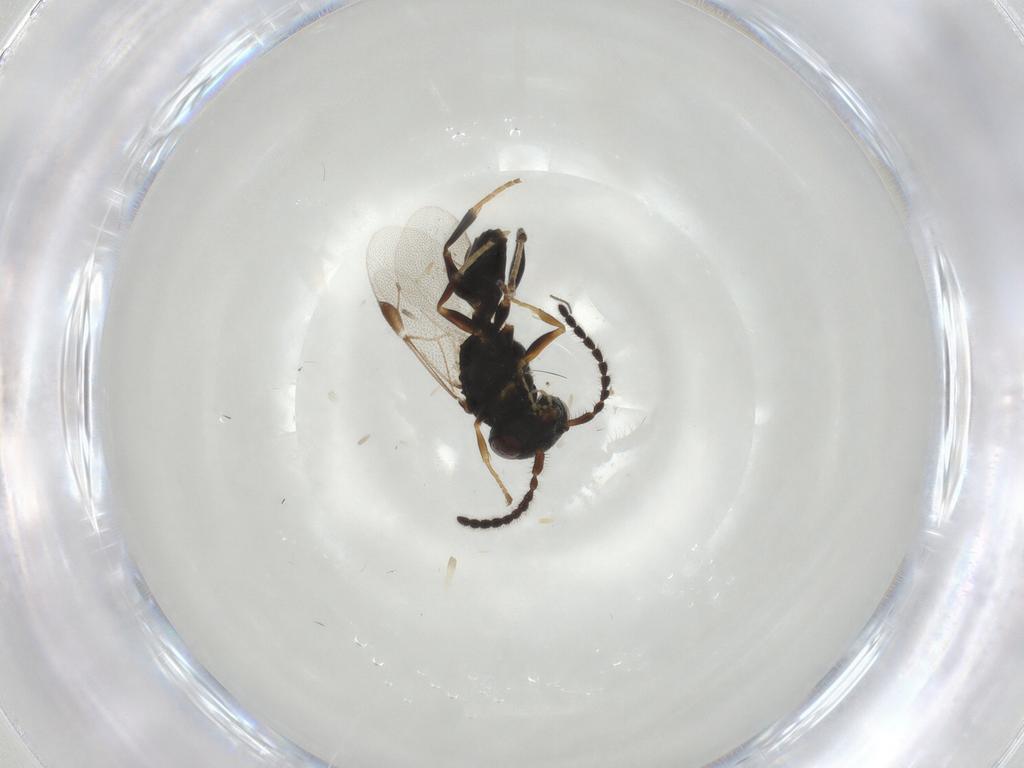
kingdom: Animalia
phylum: Arthropoda
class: Insecta
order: Hymenoptera
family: Dryinidae
